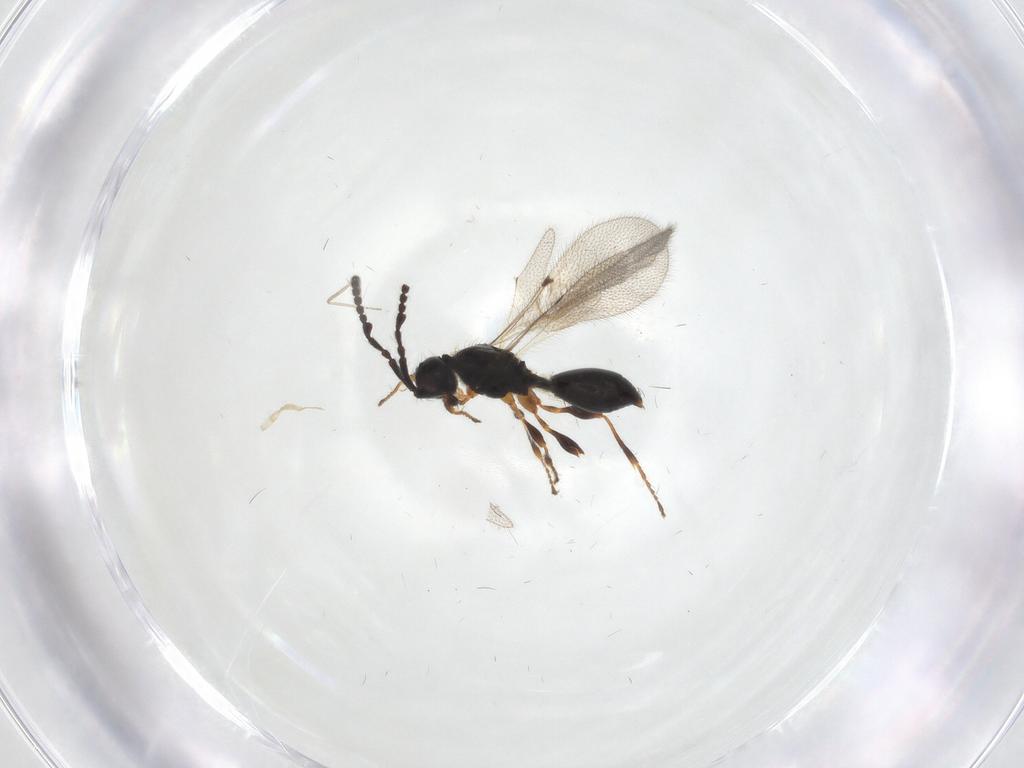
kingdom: Animalia
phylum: Arthropoda
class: Insecta
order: Hymenoptera
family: Diapriidae
